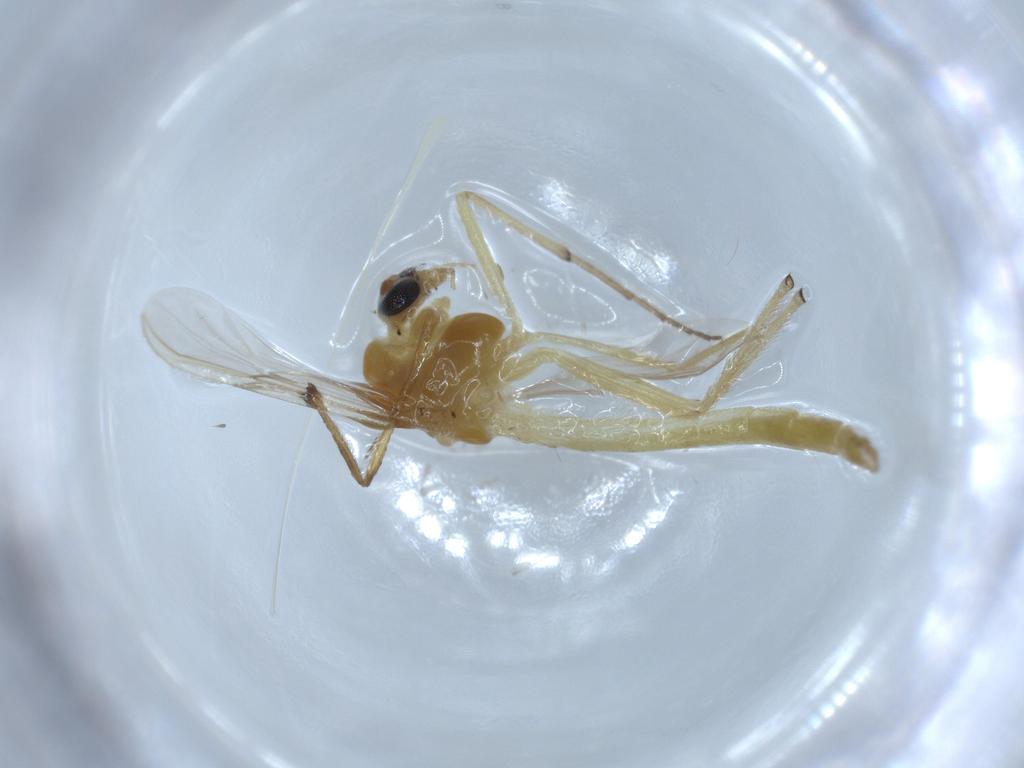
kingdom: Animalia
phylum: Arthropoda
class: Insecta
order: Diptera
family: Chironomidae
